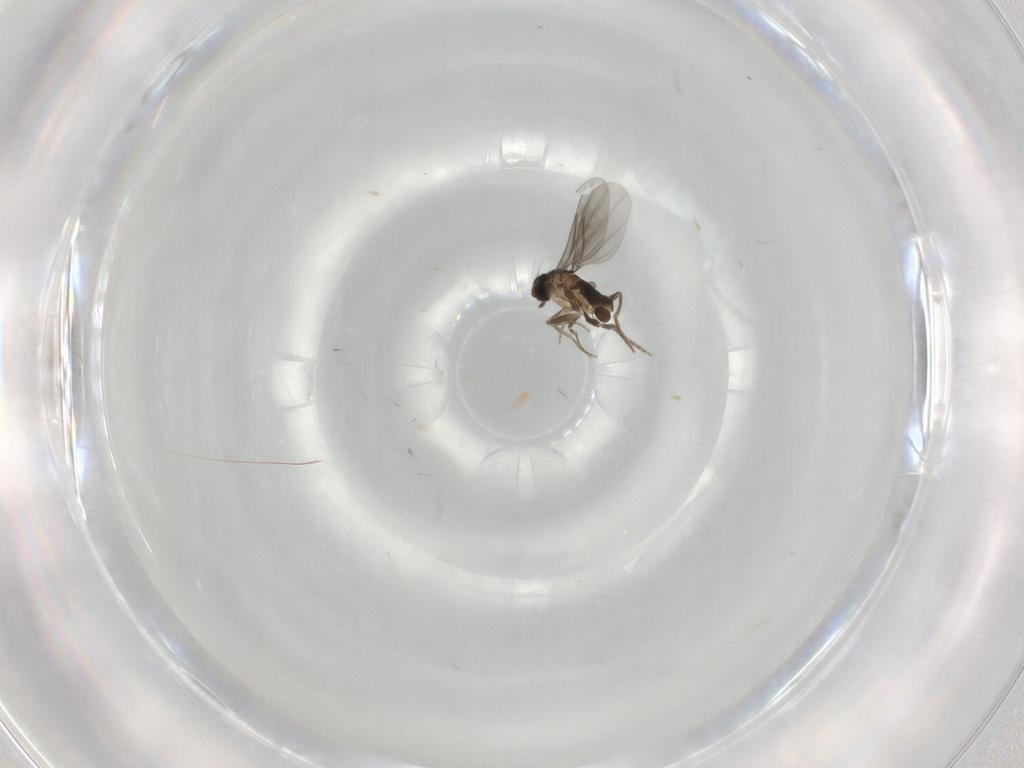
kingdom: Animalia
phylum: Arthropoda
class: Insecta
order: Diptera
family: Sciaridae
